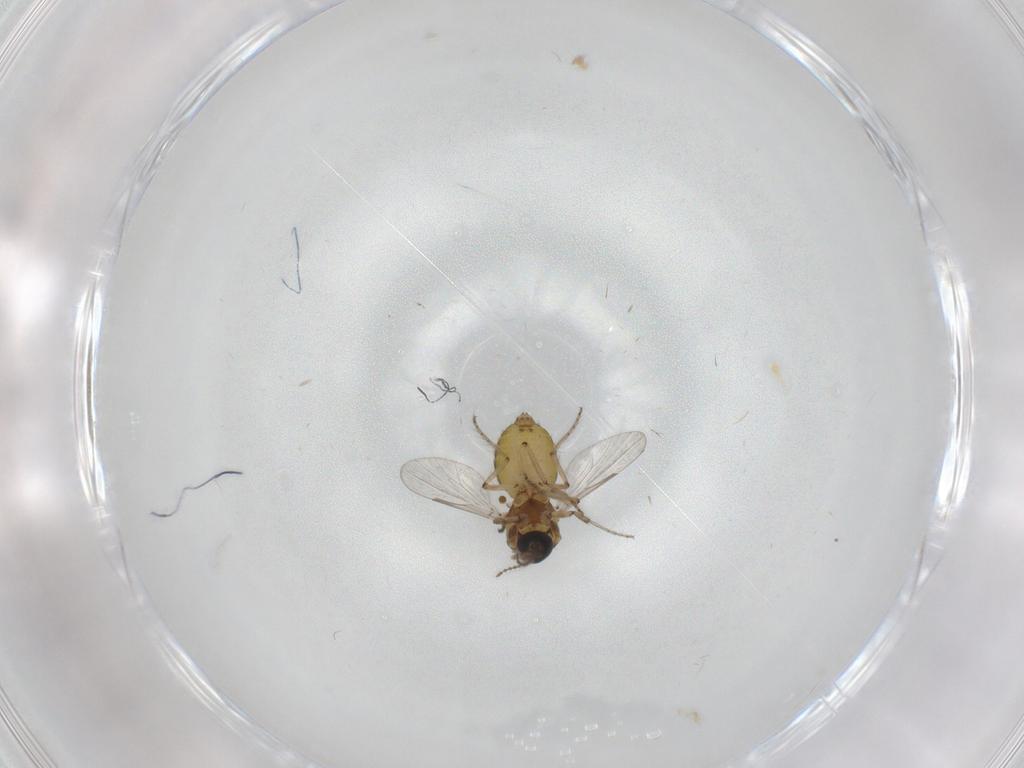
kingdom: Animalia
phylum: Arthropoda
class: Insecta
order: Diptera
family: Ceratopogonidae
